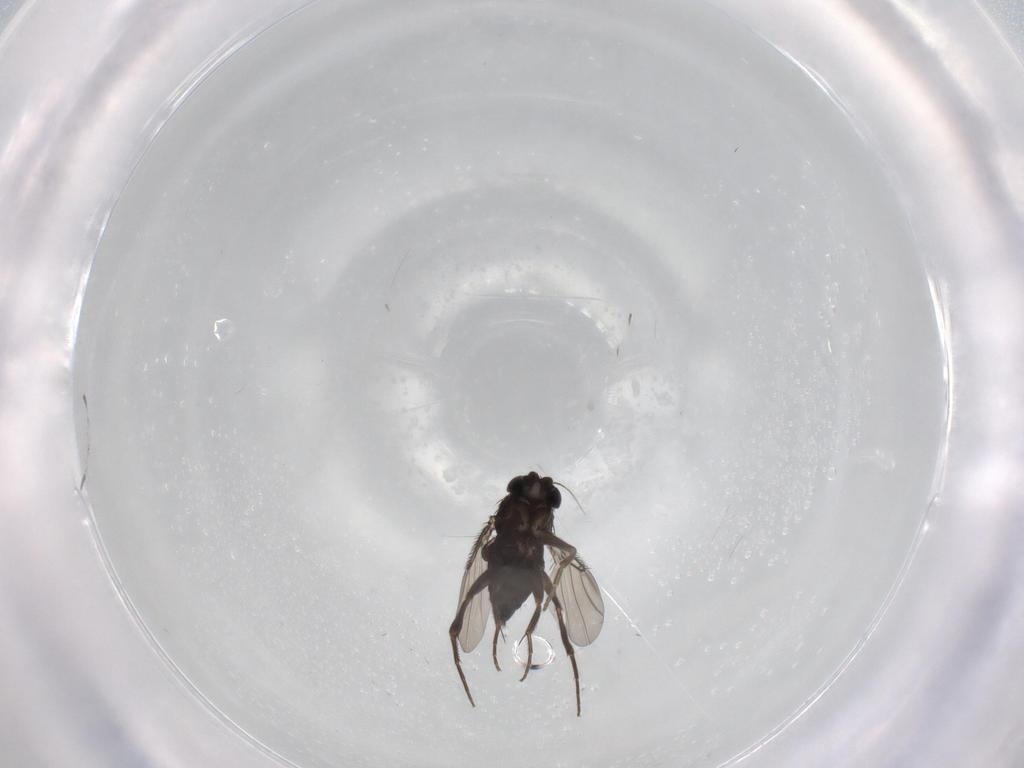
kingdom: Animalia
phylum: Arthropoda
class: Insecta
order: Diptera
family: Phoridae
